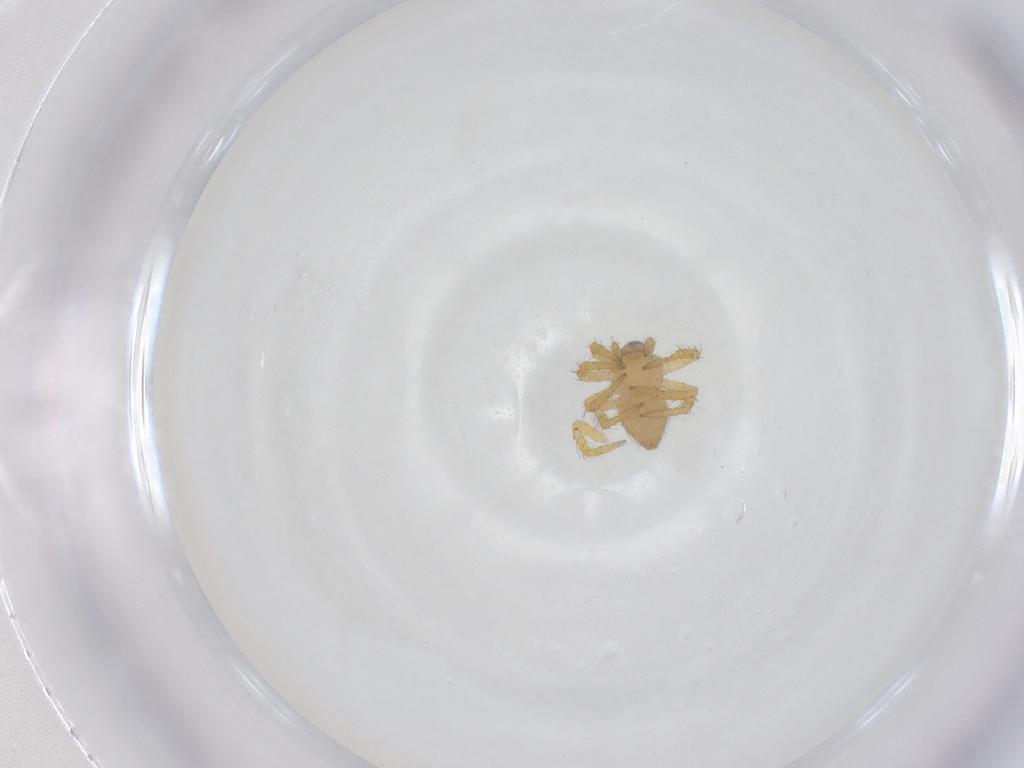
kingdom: Animalia
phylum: Arthropoda
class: Arachnida
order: Araneae
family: Theridiidae
